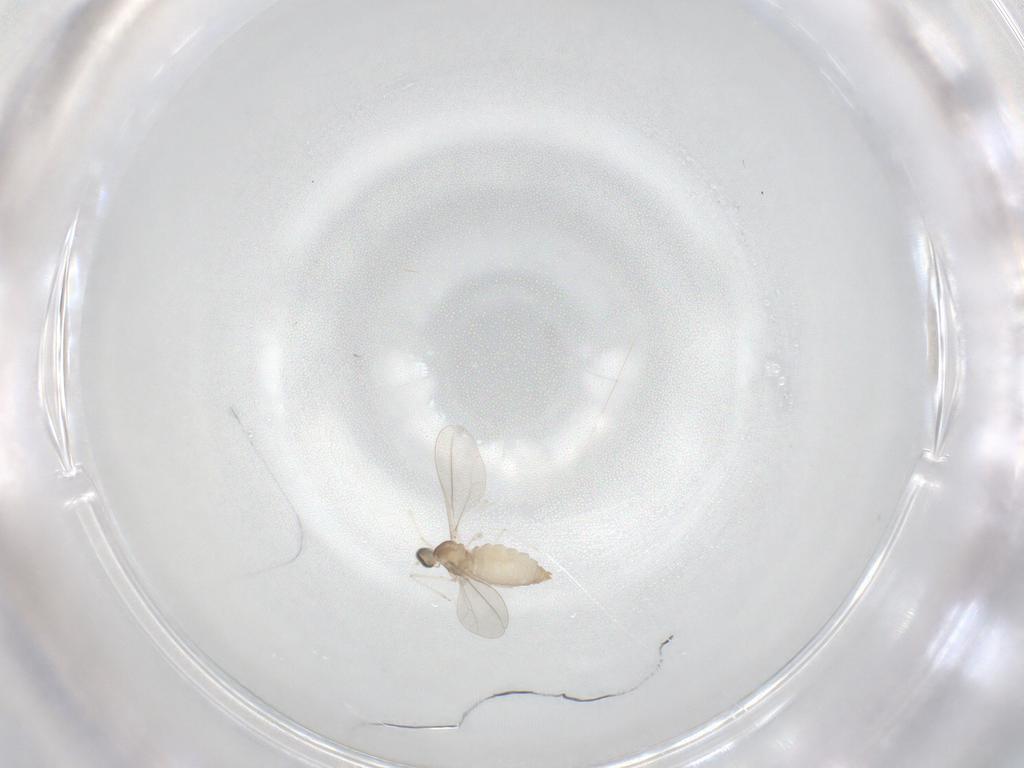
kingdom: Animalia
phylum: Arthropoda
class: Insecta
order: Diptera
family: Cecidomyiidae
